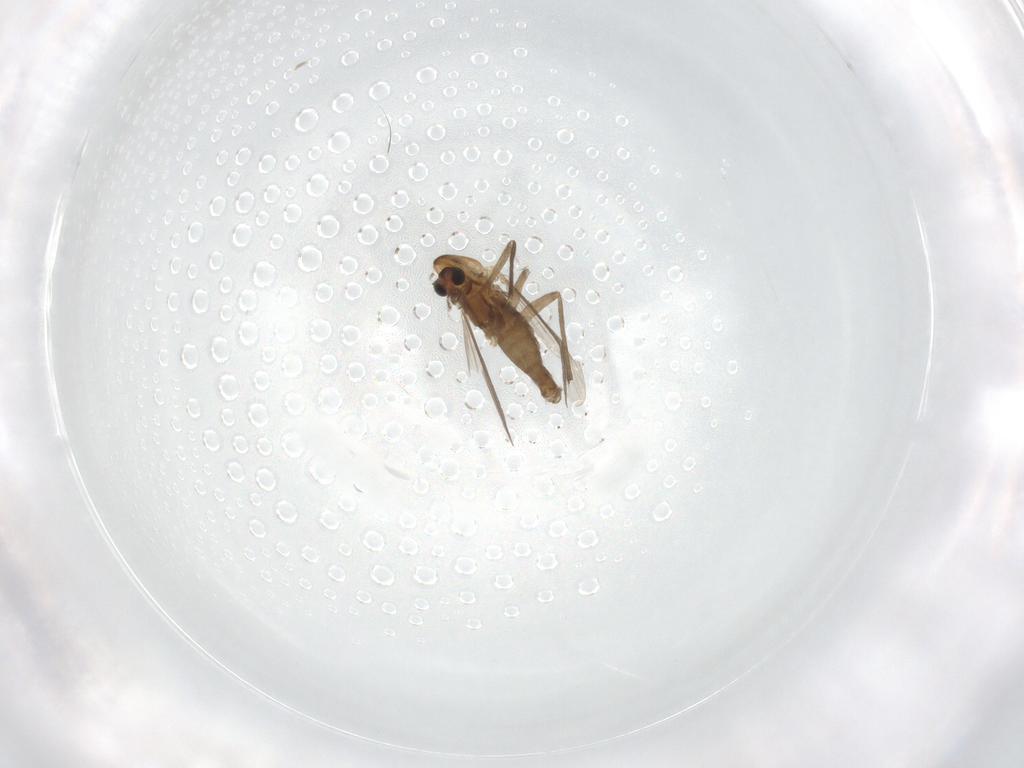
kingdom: Animalia
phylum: Arthropoda
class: Insecta
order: Diptera
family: Chironomidae
